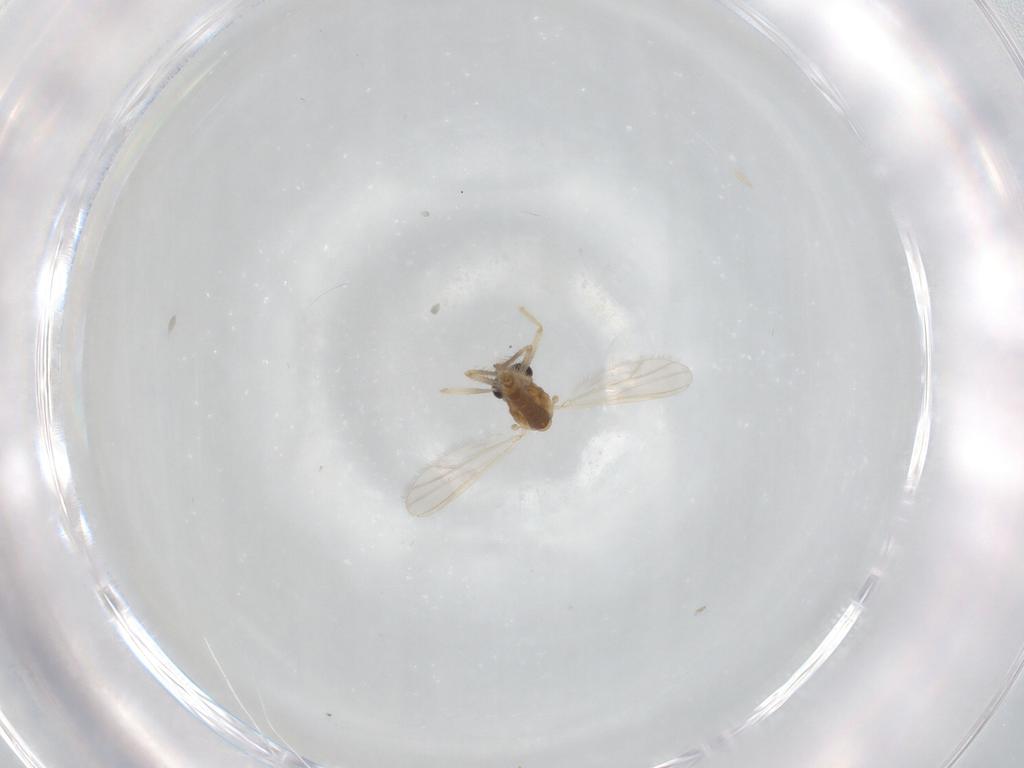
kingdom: Animalia
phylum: Arthropoda
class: Insecta
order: Diptera
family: Chironomidae
